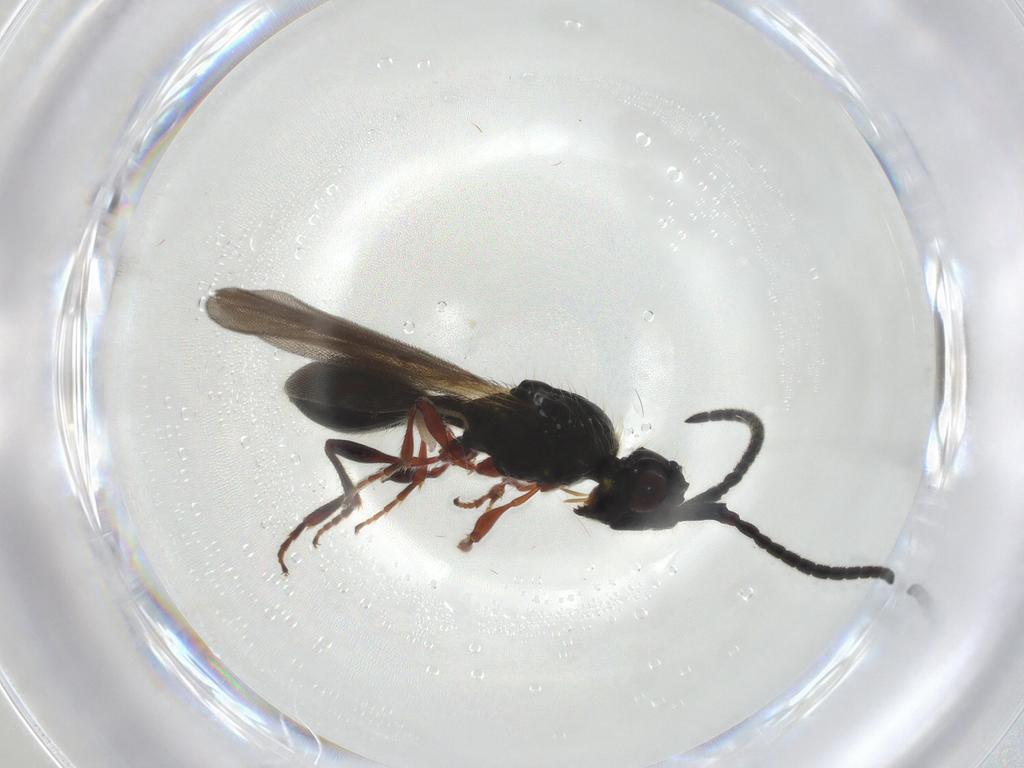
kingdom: Animalia
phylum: Arthropoda
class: Insecta
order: Hymenoptera
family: Diapriidae
